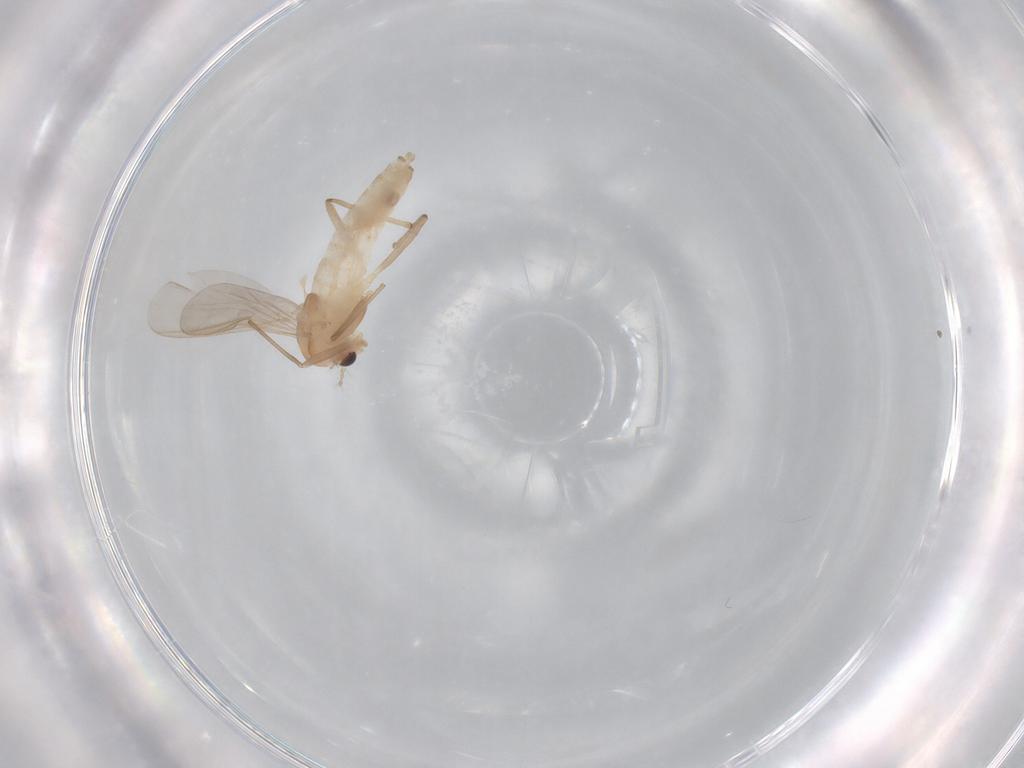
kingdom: Animalia
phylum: Arthropoda
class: Insecta
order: Diptera
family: Chironomidae
